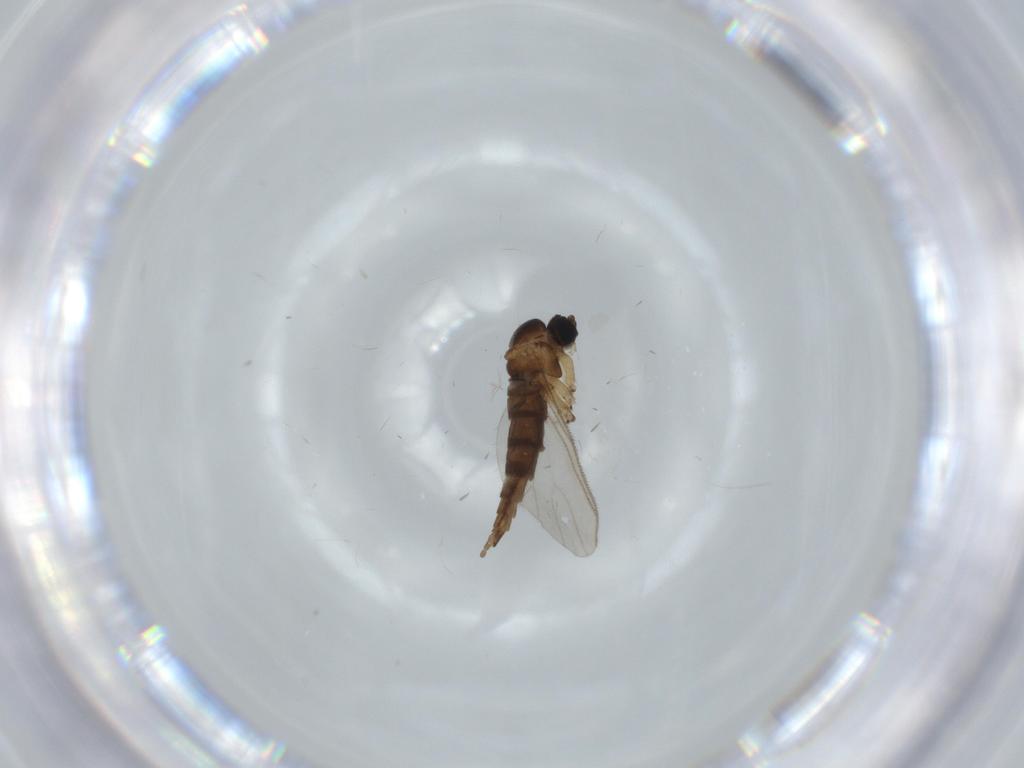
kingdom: Animalia
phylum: Arthropoda
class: Insecta
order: Diptera
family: Sciaridae
